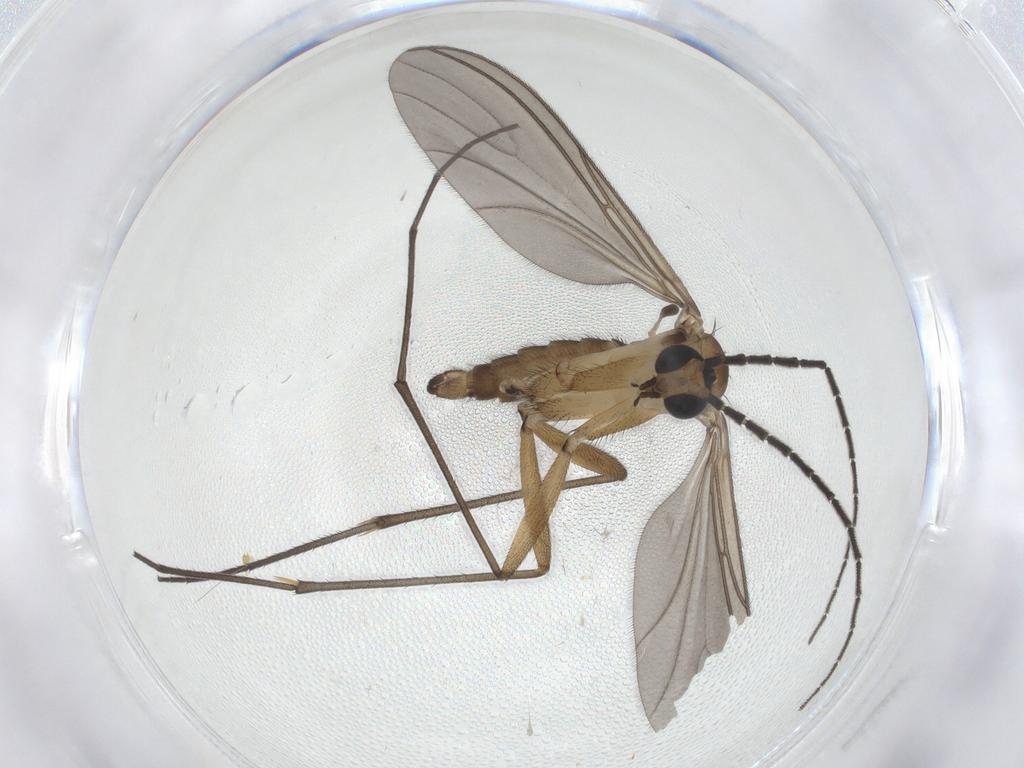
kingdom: Animalia
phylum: Arthropoda
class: Insecta
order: Diptera
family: Sciaridae
